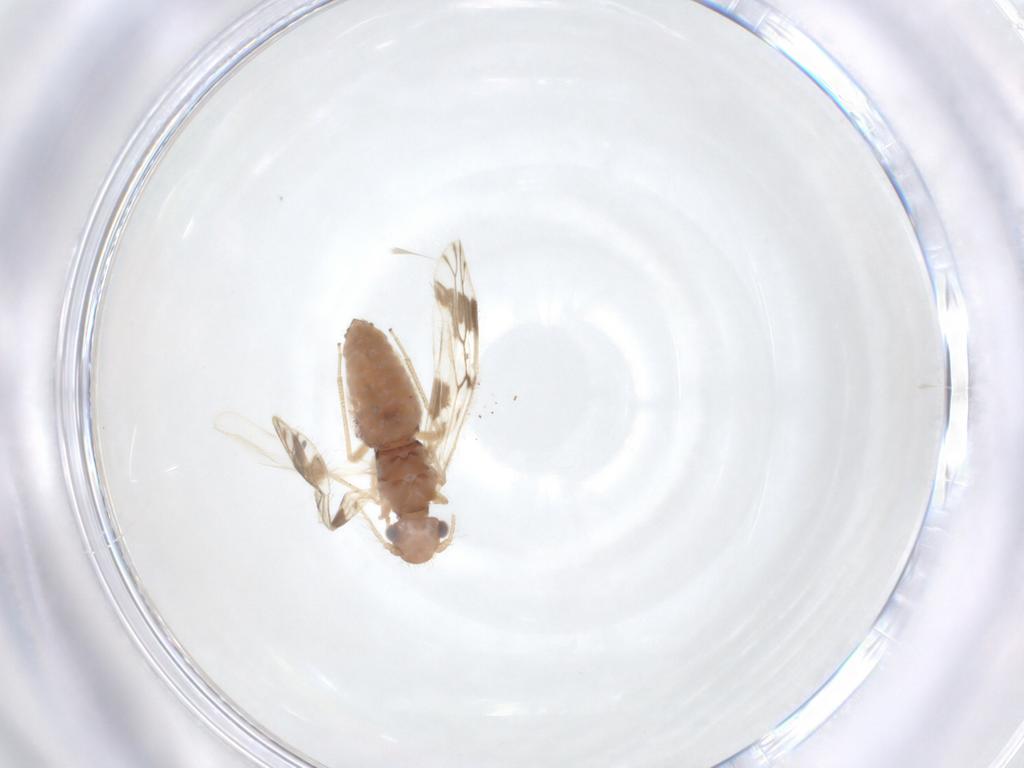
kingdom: Animalia
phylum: Arthropoda
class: Insecta
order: Psocodea
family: Pseudocaeciliidae
